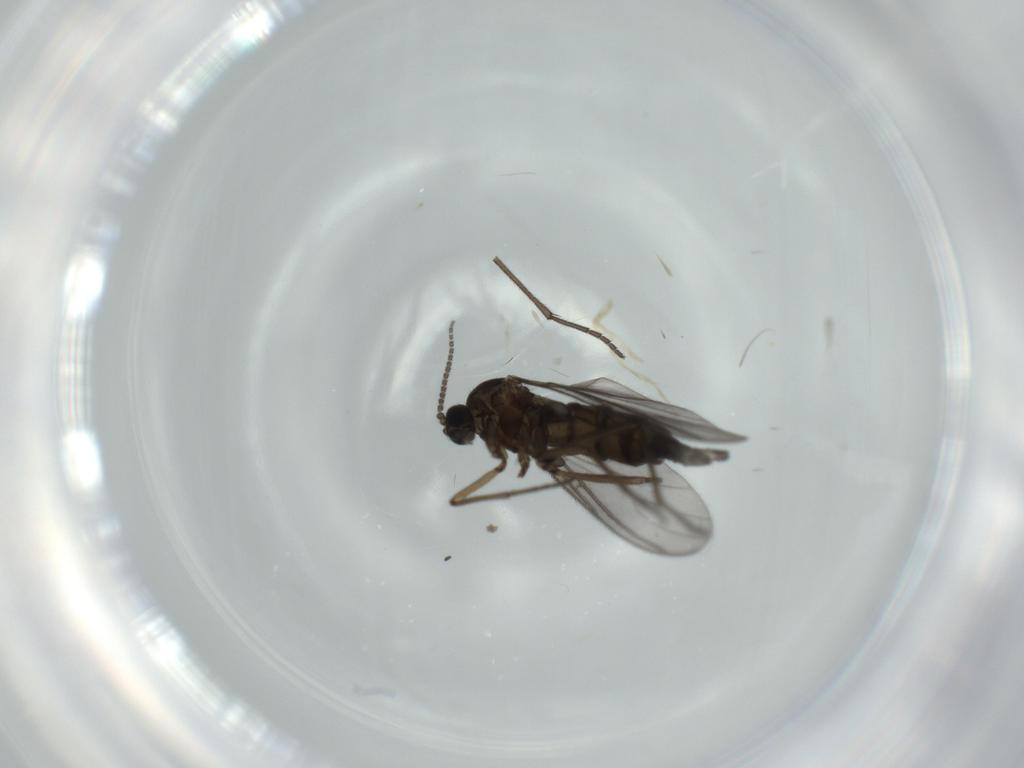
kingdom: Animalia
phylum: Arthropoda
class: Insecta
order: Diptera
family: Sciaridae
